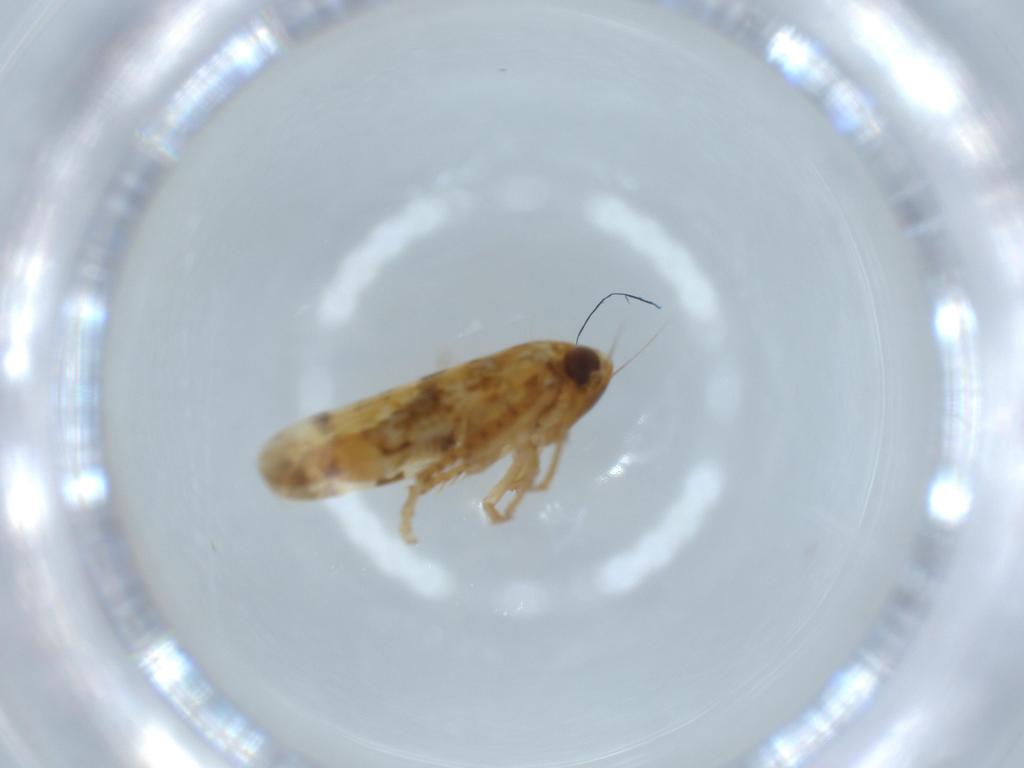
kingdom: Animalia
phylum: Arthropoda
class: Insecta
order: Hemiptera
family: Cicadellidae
